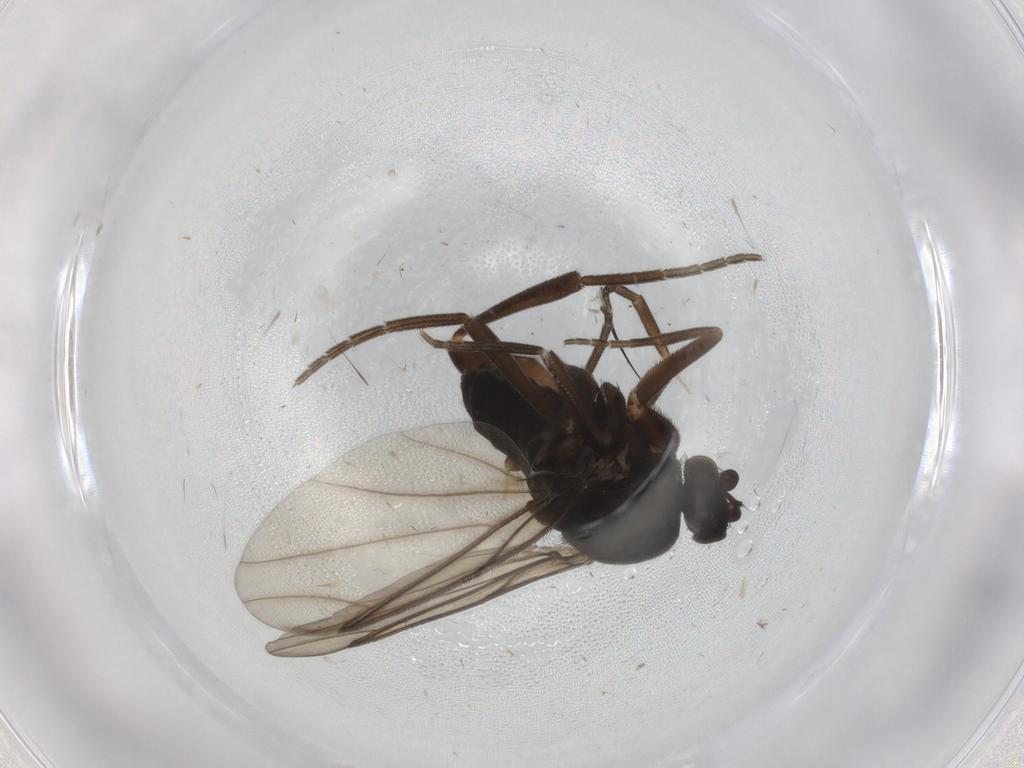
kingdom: Animalia
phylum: Arthropoda
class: Insecta
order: Diptera
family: Phoridae
